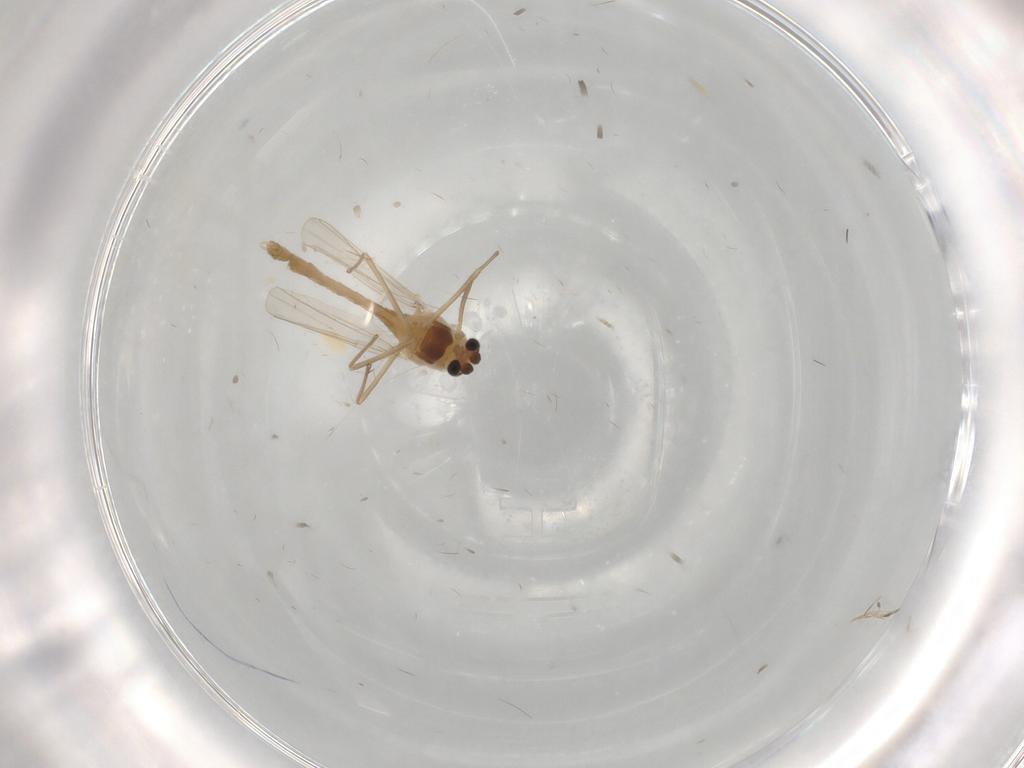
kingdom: Animalia
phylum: Arthropoda
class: Insecta
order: Diptera
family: Chironomidae
